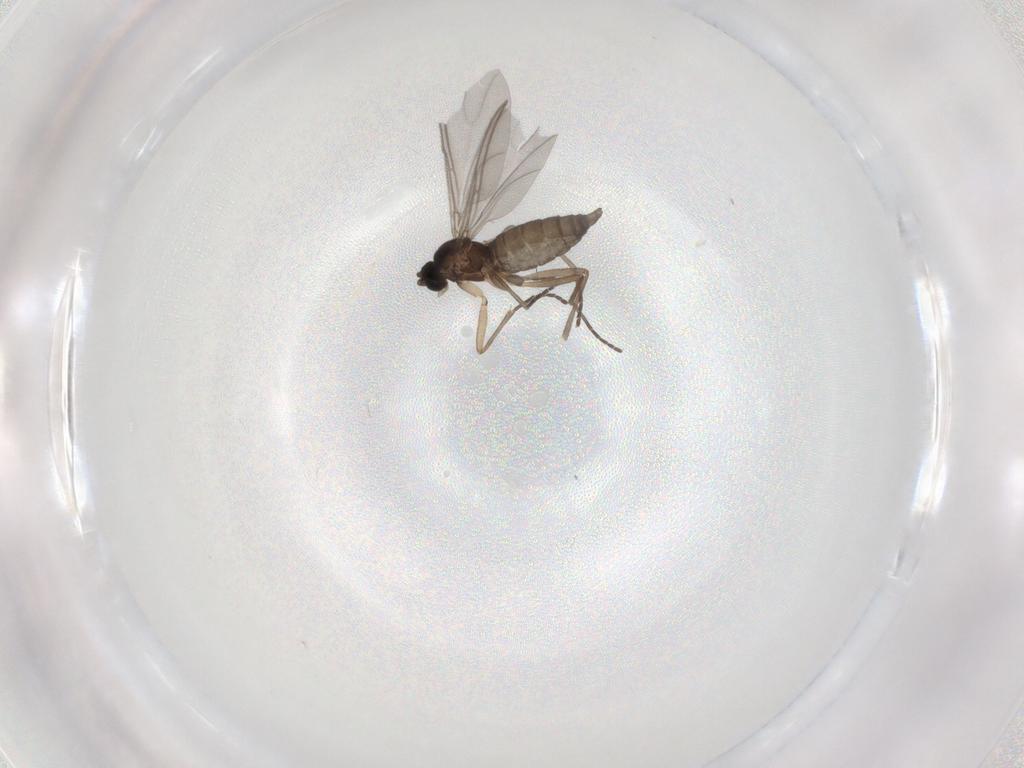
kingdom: Animalia
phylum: Arthropoda
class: Insecta
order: Diptera
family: Sciaridae
